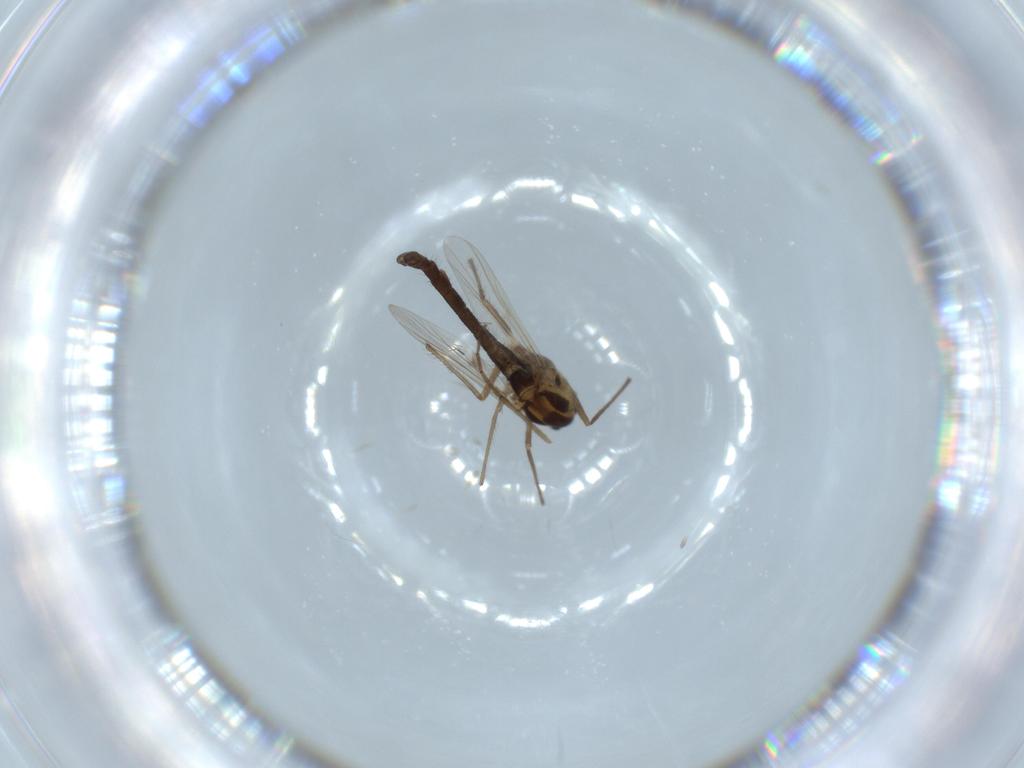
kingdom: Animalia
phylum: Arthropoda
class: Insecta
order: Diptera
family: Chironomidae
